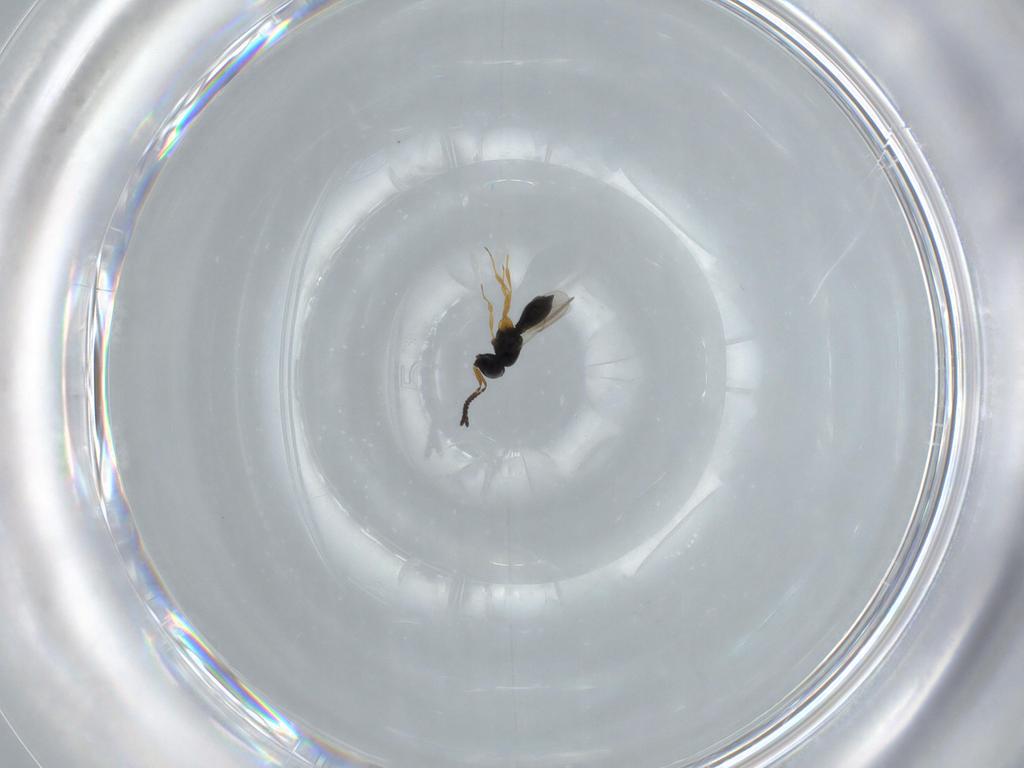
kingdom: Animalia
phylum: Arthropoda
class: Insecta
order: Hymenoptera
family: Scelionidae
